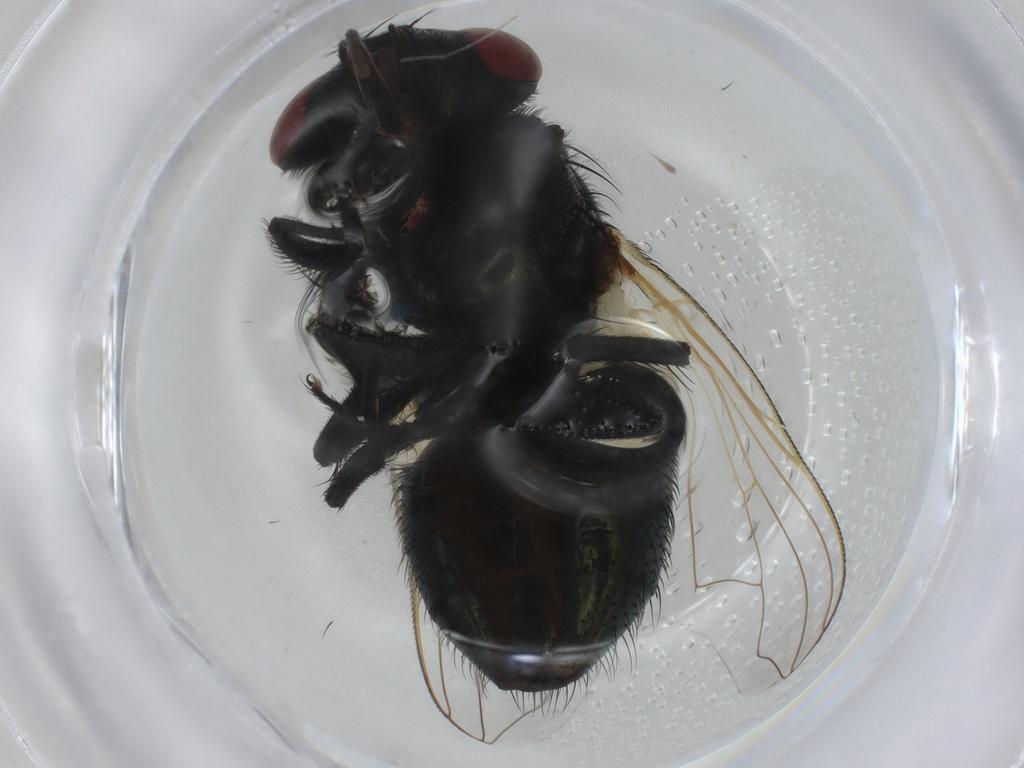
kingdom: Animalia
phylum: Arthropoda
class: Insecta
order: Diptera
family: Muscidae
